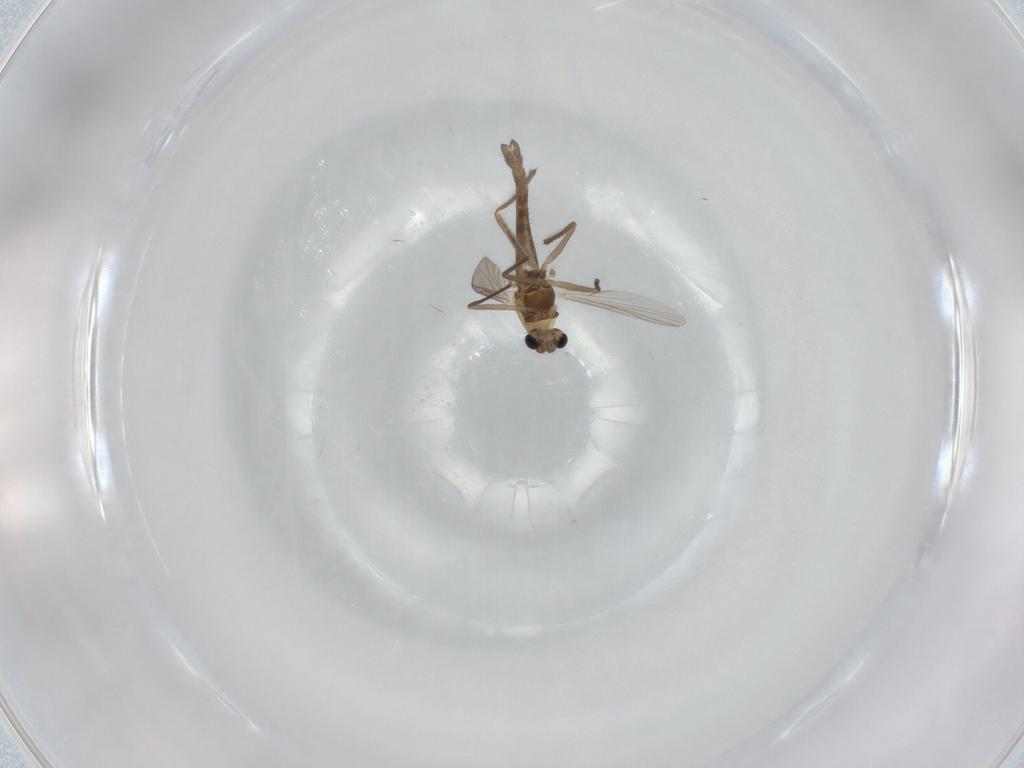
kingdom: Animalia
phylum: Arthropoda
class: Insecta
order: Diptera
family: Chironomidae
